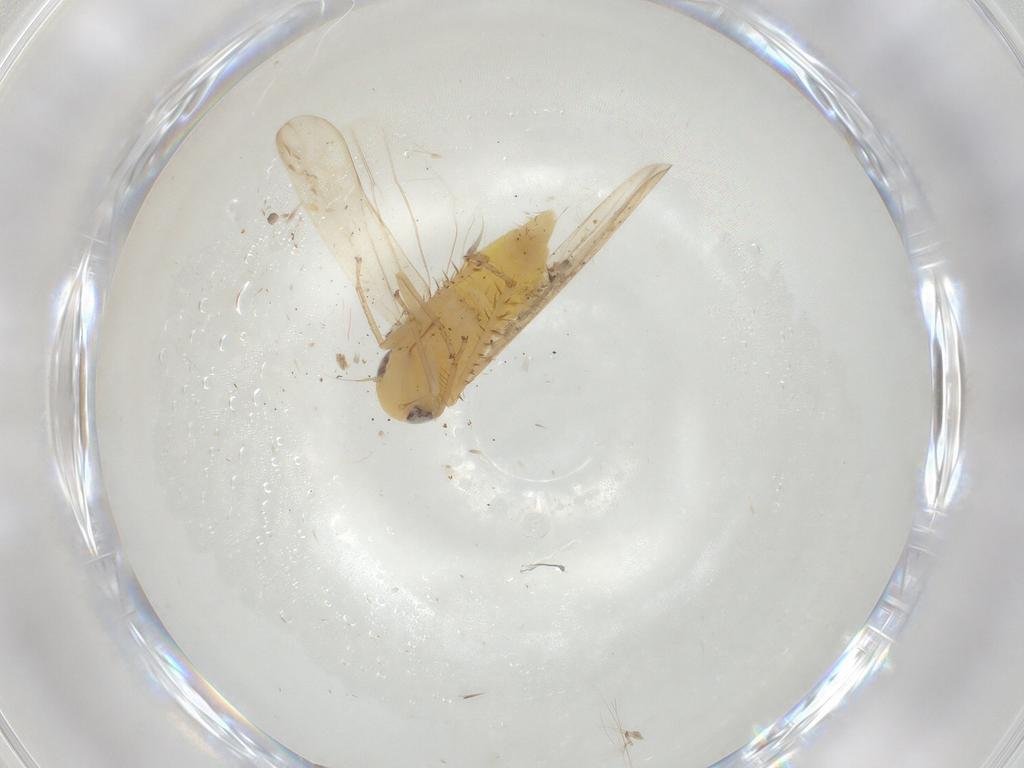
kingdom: Animalia
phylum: Arthropoda
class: Insecta
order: Hemiptera
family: Cicadellidae
